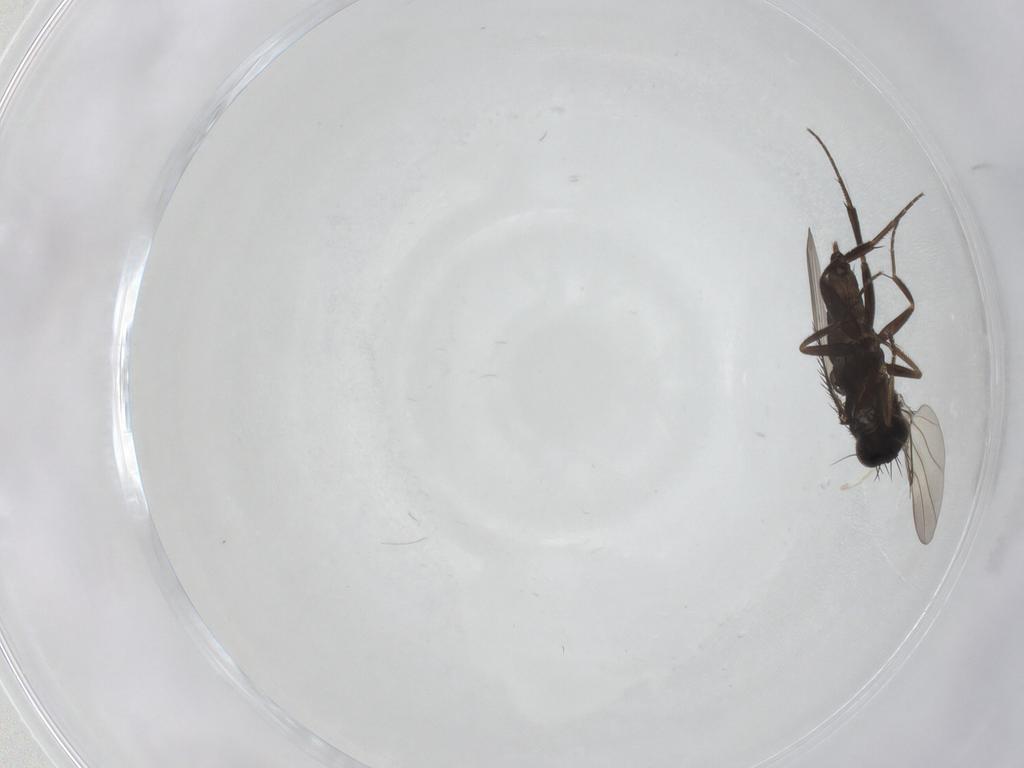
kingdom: Animalia
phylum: Arthropoda
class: Insecta
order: Diptera
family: Phoridae
